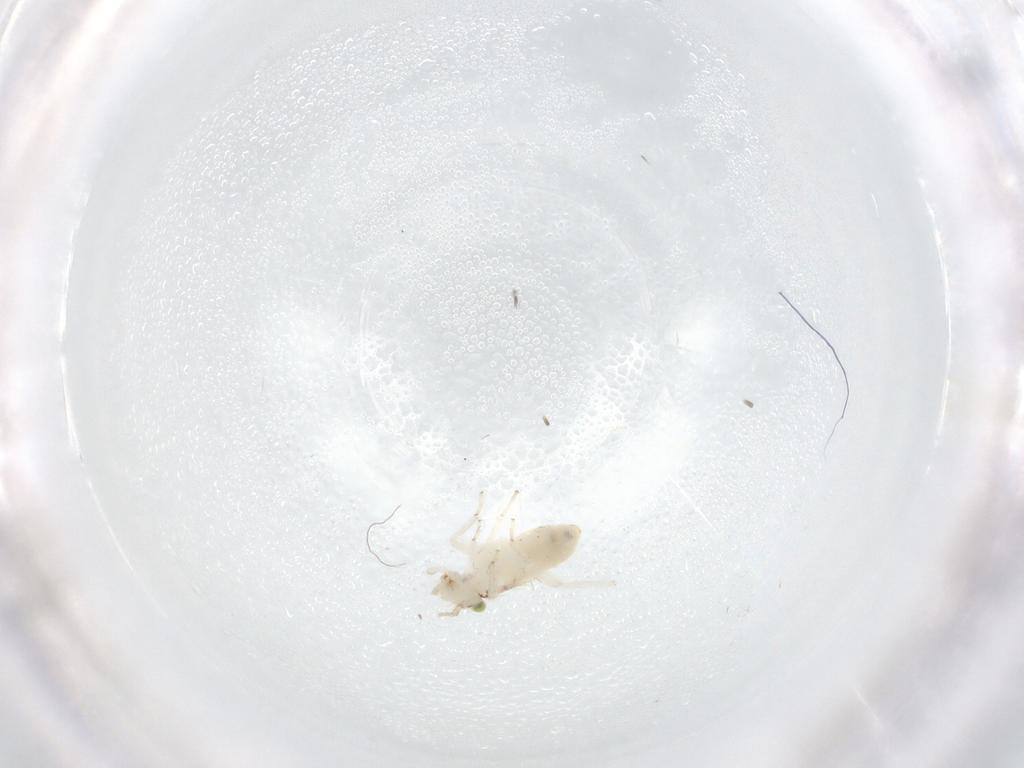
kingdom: Animalia
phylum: Arthropoda
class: Insecta
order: Psocodea
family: Lepidopsocidae
